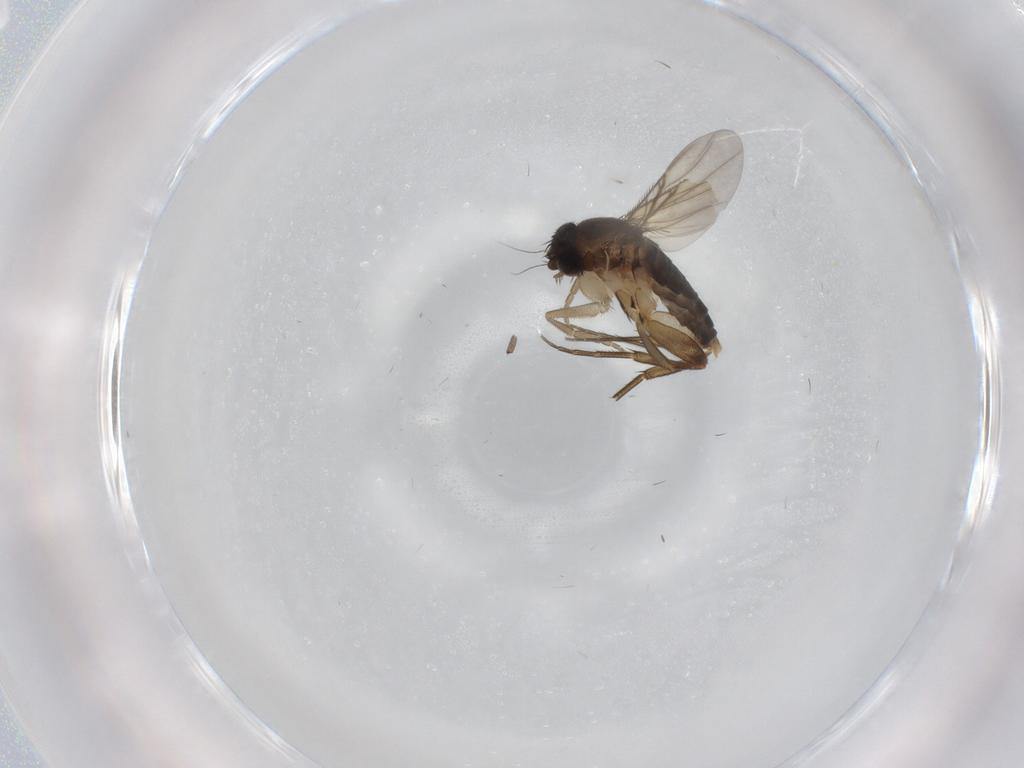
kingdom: Animalia
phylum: Arthropoda
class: Insecta
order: Diptera
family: Phoridae
